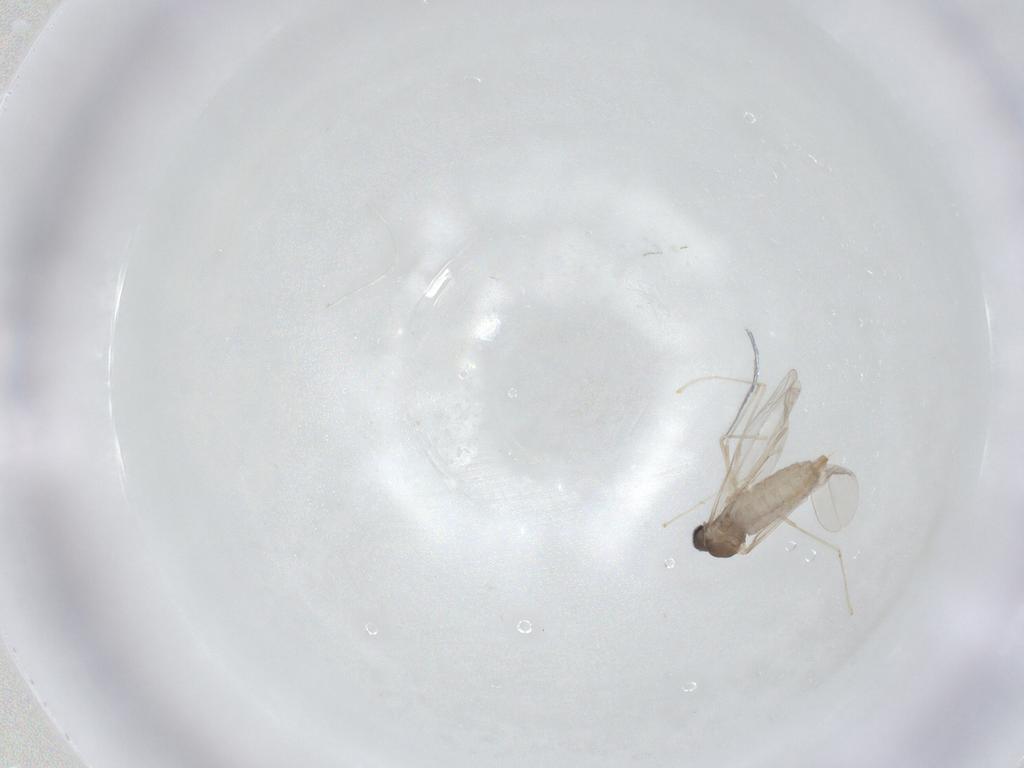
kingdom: Animalia
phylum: Arthropoda
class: Insecta
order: Diptera
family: Cecidomyiidae
